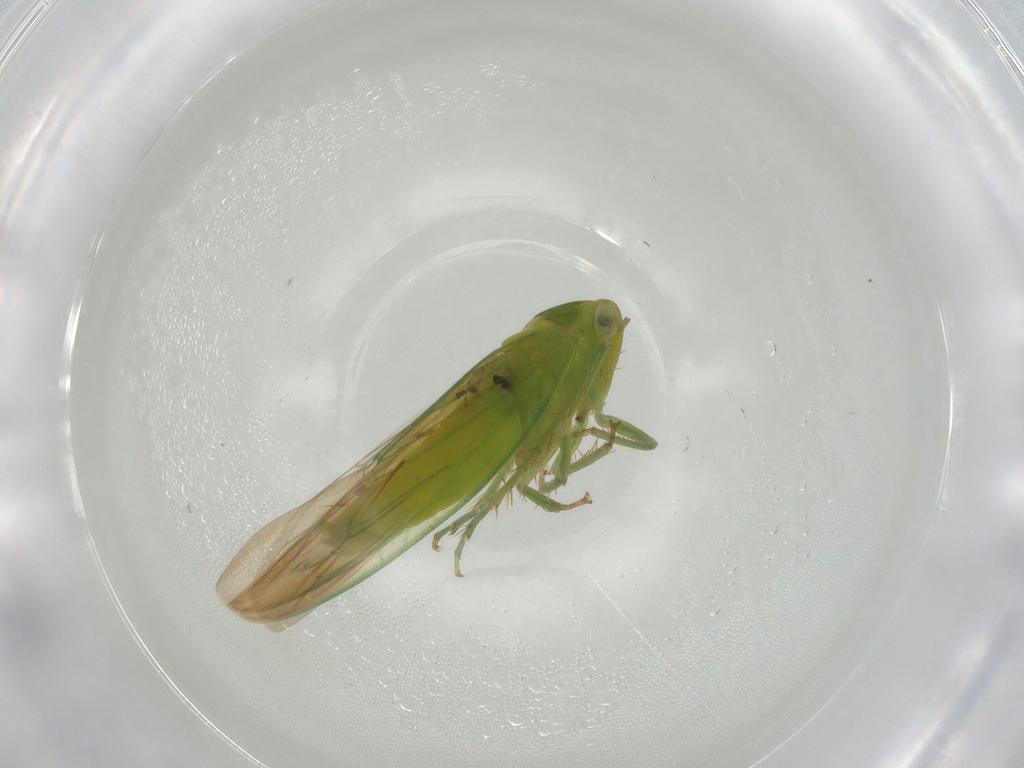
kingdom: Animalia
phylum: Arthropoda
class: Insecta
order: Hemiptera
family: Cicadellidae
